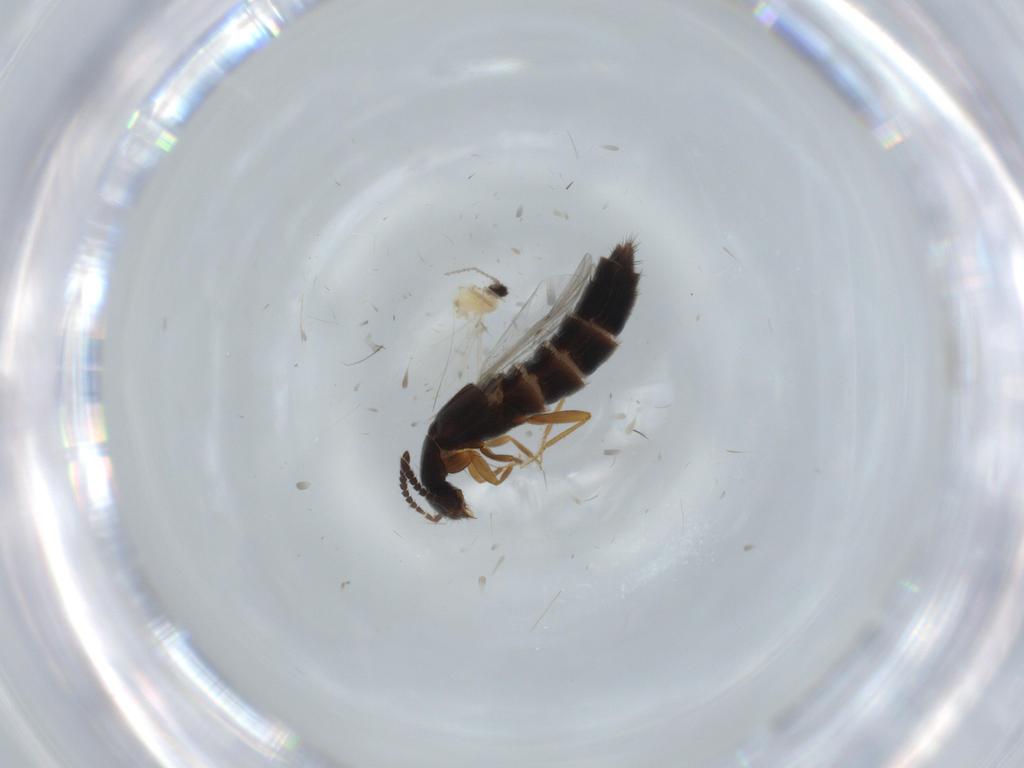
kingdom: Animalia
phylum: Arthropoda
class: Insecta
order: Diptera
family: Cecidomyiidae
